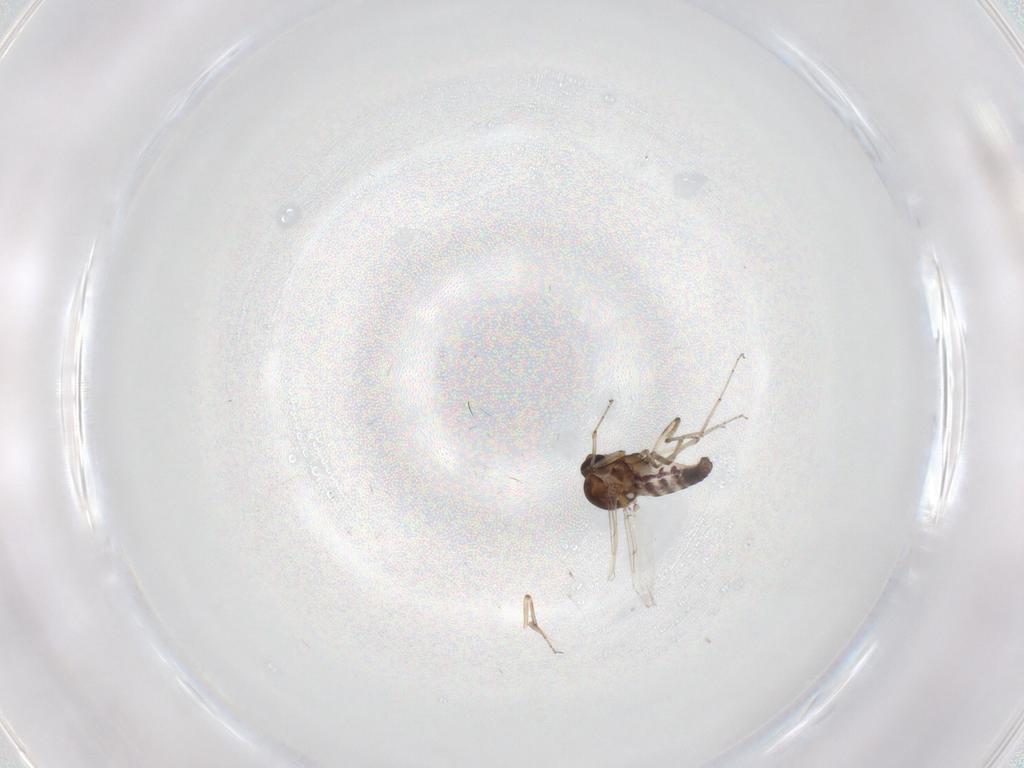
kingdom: Animalia
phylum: Arthropoda
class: Insecta
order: Diptera
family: Ceratopogonidae
